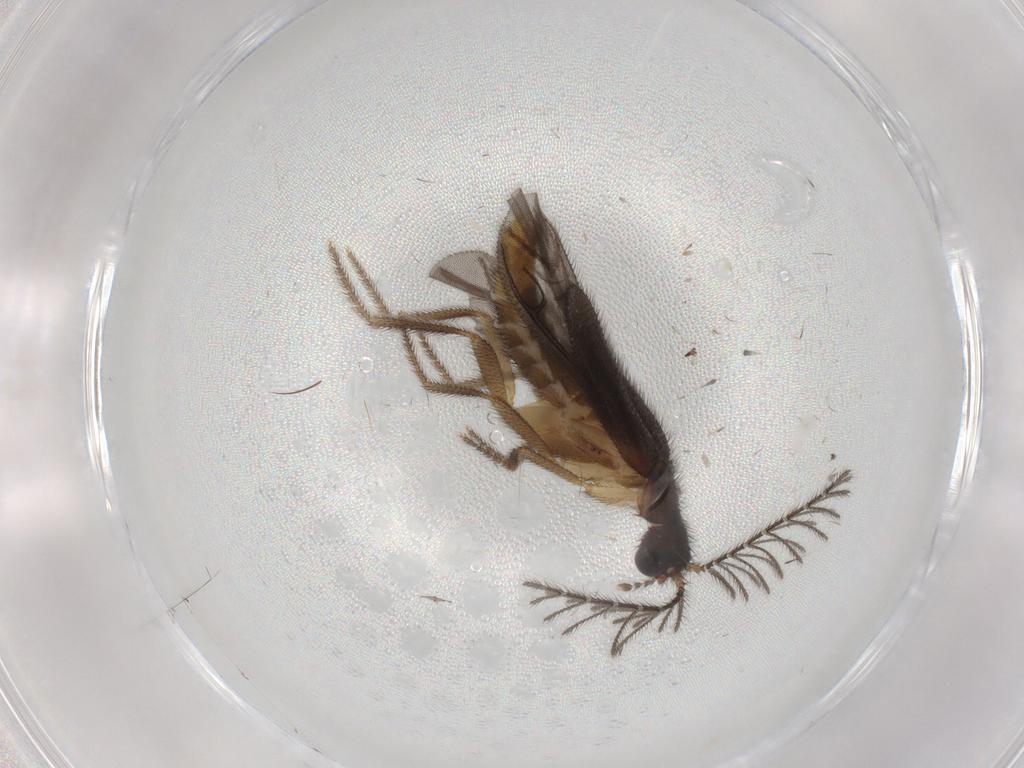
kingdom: Animalia
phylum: Arthropoda
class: Insecta
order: Coleoptera
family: Phengodidae
